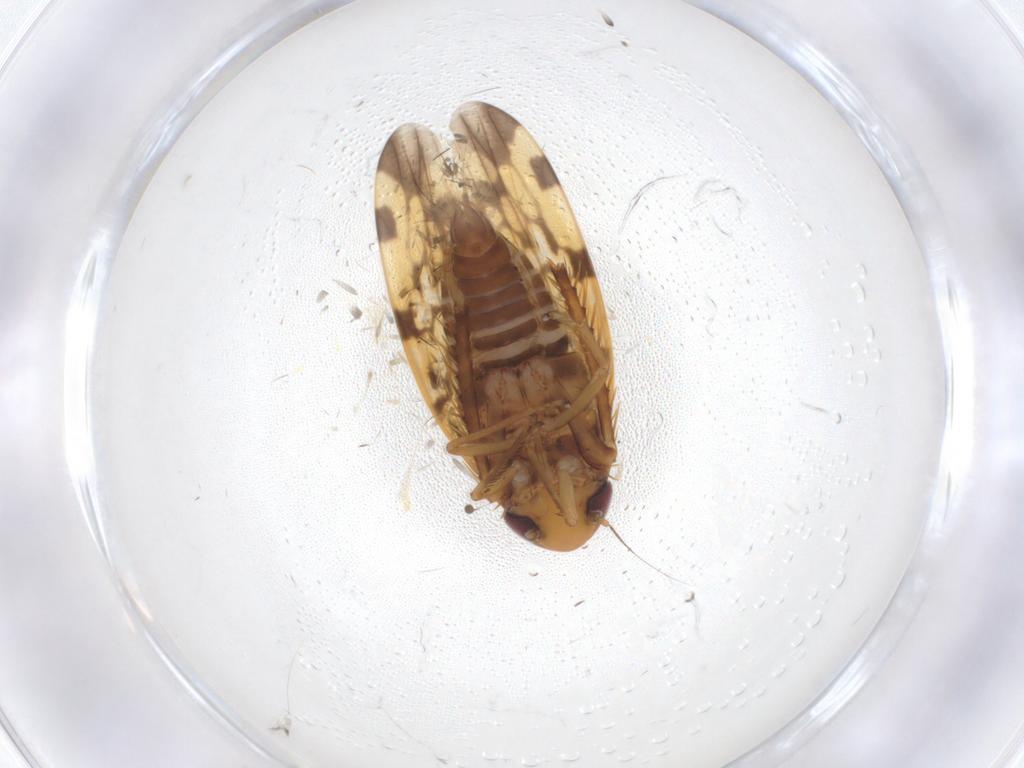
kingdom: Animalia
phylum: Arthropoda
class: Insecta
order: Hemiptera
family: Cicadellidae
